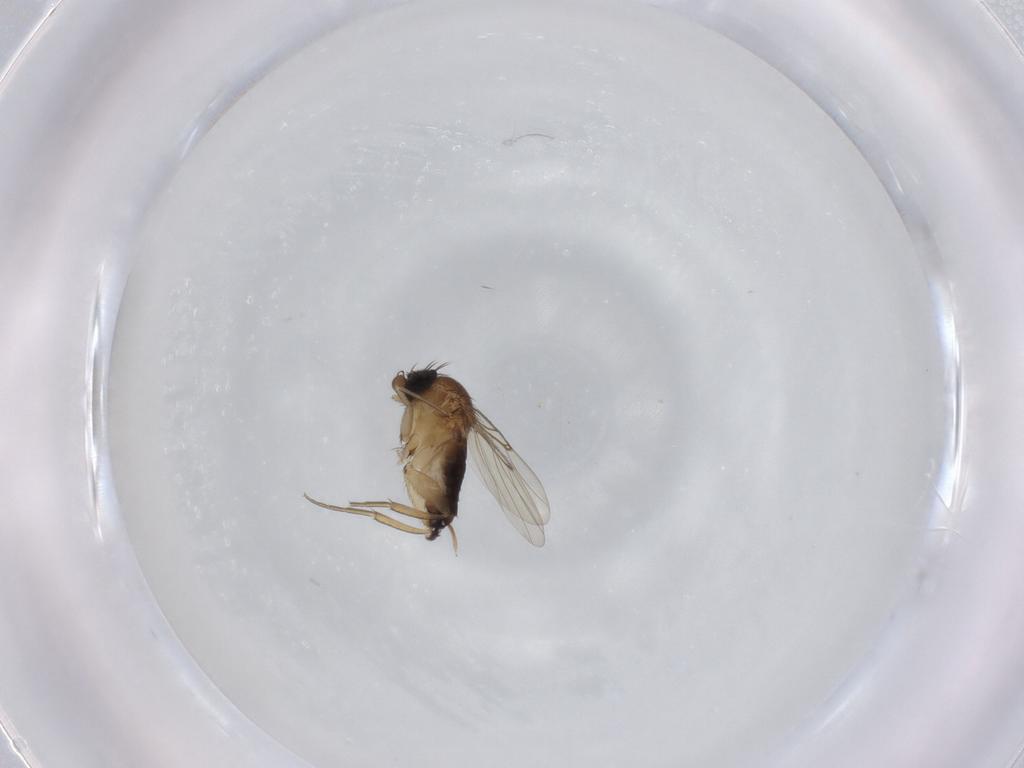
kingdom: Animalia
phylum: Arthropoda
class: Insecta
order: Diptera
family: Phoridae
